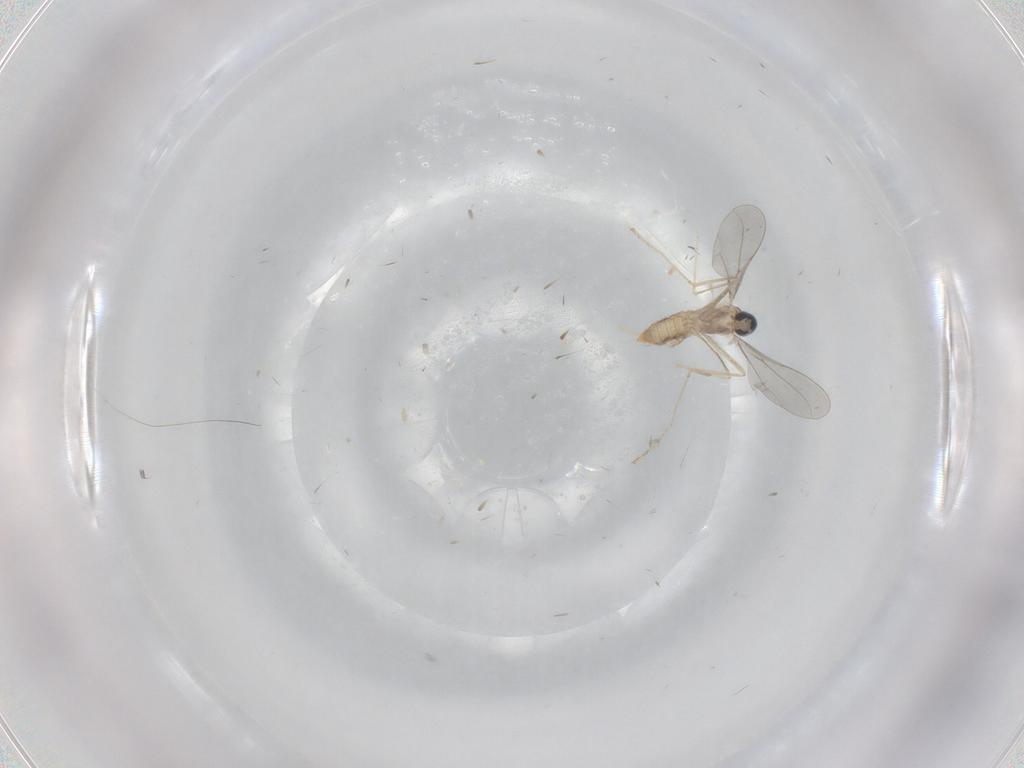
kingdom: Animalia
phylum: Arthropoda
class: Insecta
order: Diptera
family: Cecidomyiidae
